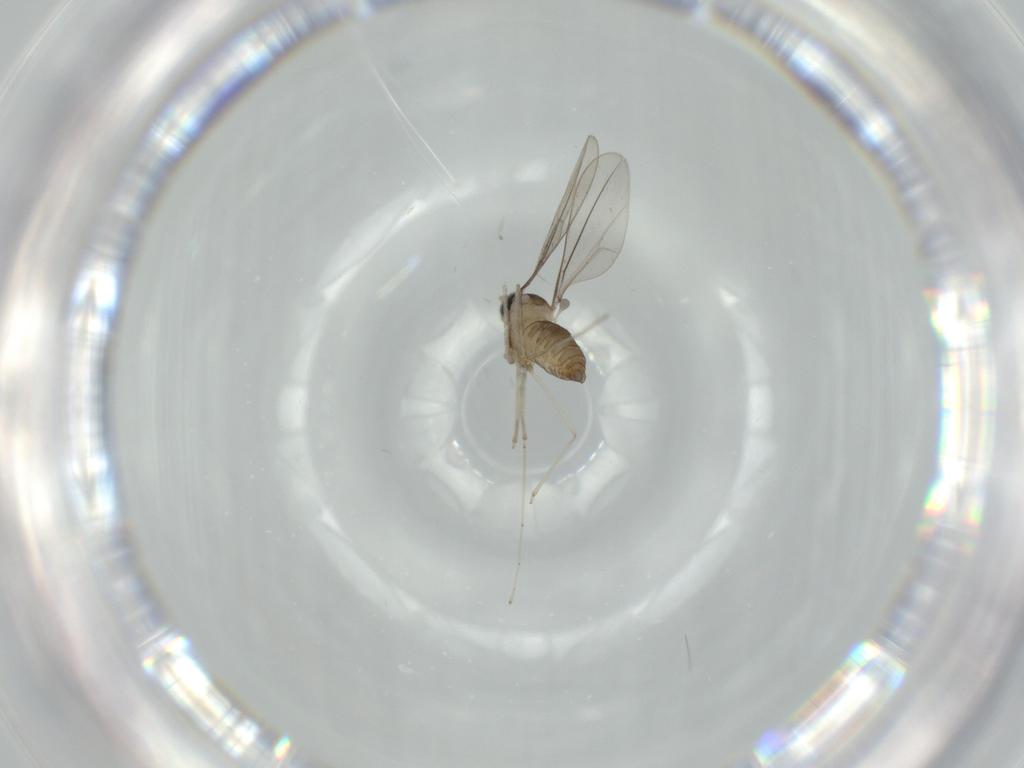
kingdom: Animalia
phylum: Arthropoda
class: Insecta
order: Diptera
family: Cecidomyiidae
